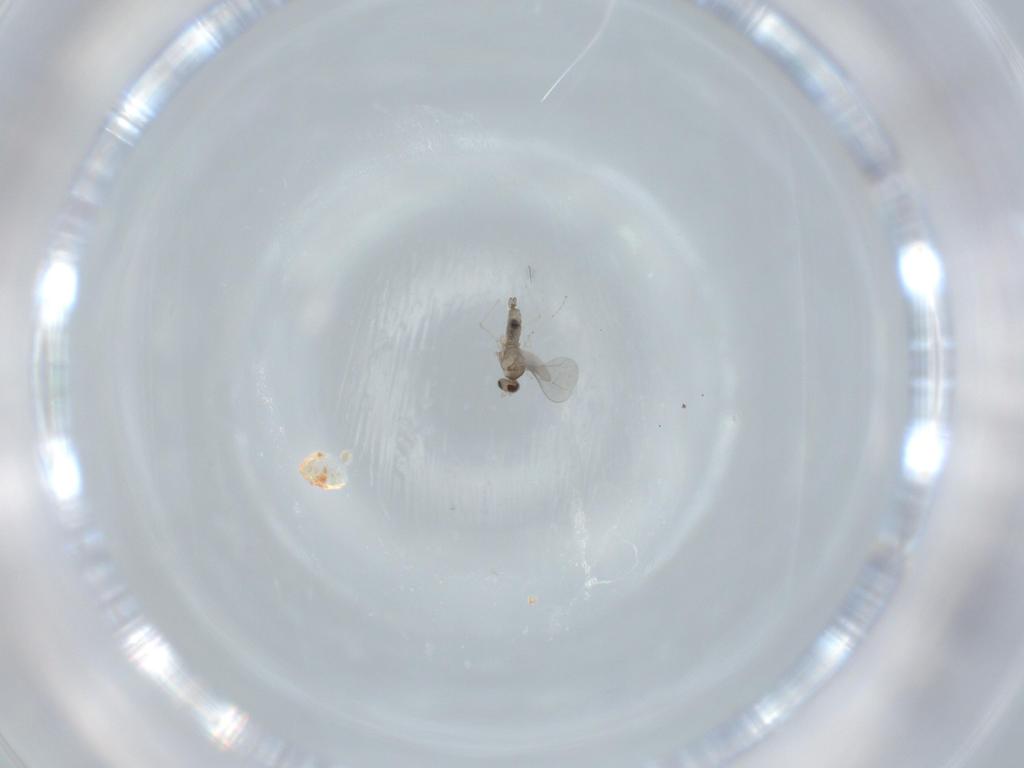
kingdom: Animalia
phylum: Arthropoda
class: Insecta
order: Diptera
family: Cecidomyiidae
